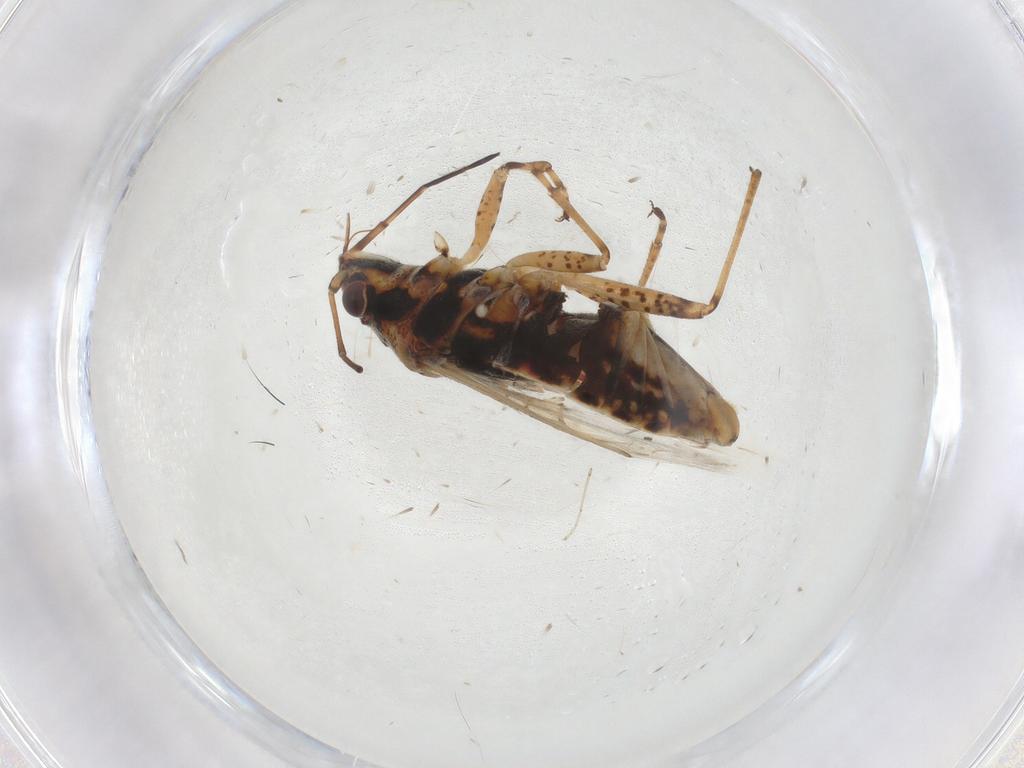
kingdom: Animalia
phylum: Arthropoda
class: Insecta
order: Hemiptera
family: Lygaeidae
